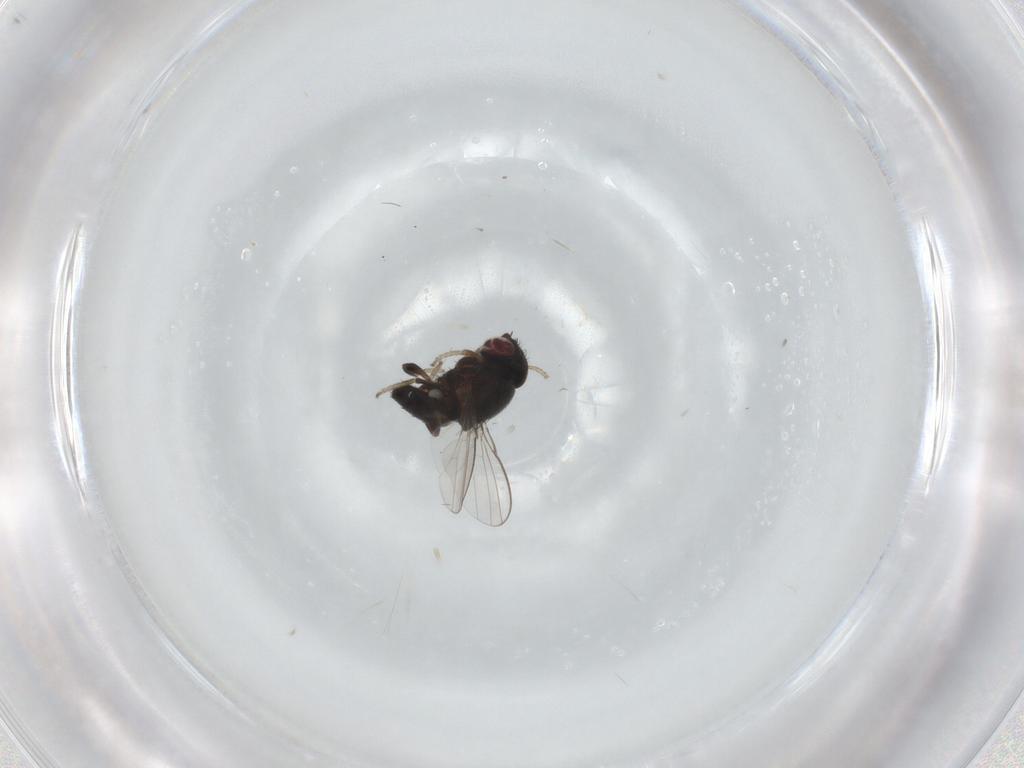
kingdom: Animalia
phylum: Arthropoda
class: Insecta
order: Diptera
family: Milichiidae
